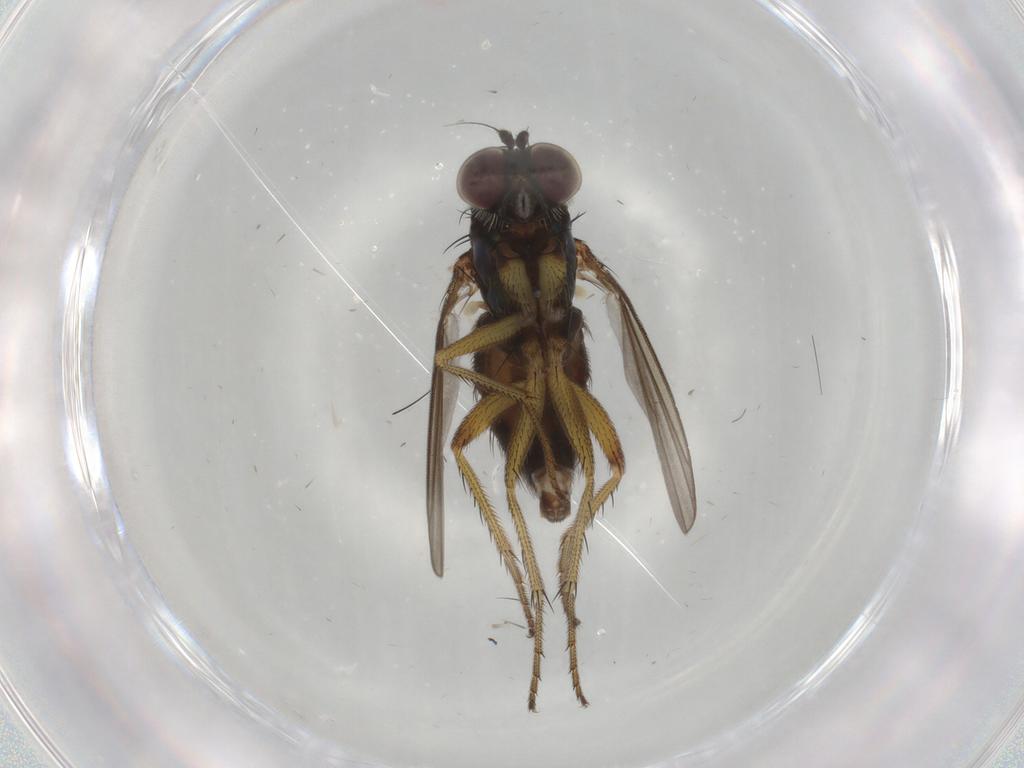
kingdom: Animalia
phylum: Arthropoda
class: Insecta
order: Diptera
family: Dolichopodidae
